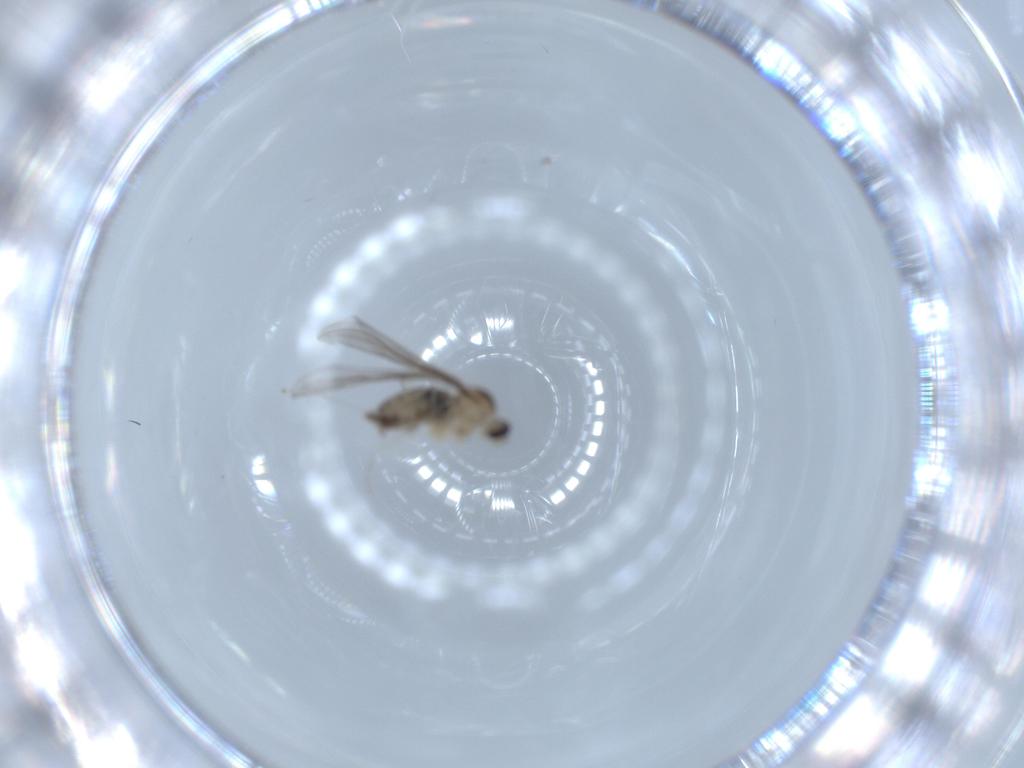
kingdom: Animalia
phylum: Arthropoda
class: Insecta
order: Diptera
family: Cecidomyiidae
